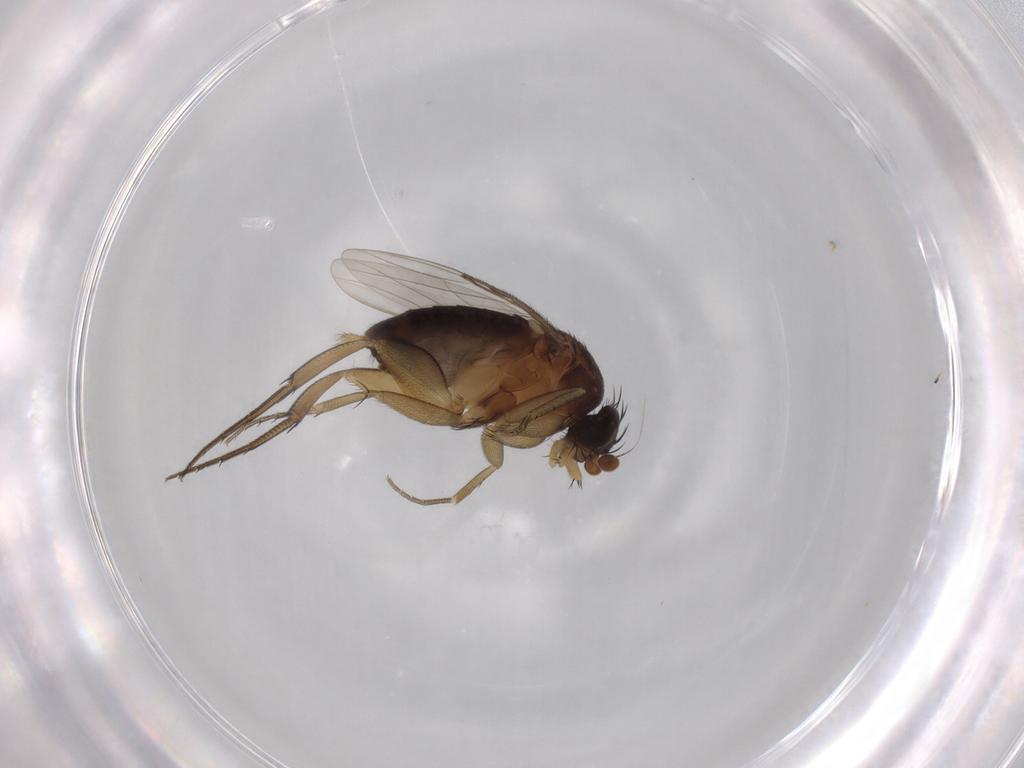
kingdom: Animalia
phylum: Arthropoda
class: Insecta
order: Diptera
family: Phoridae
